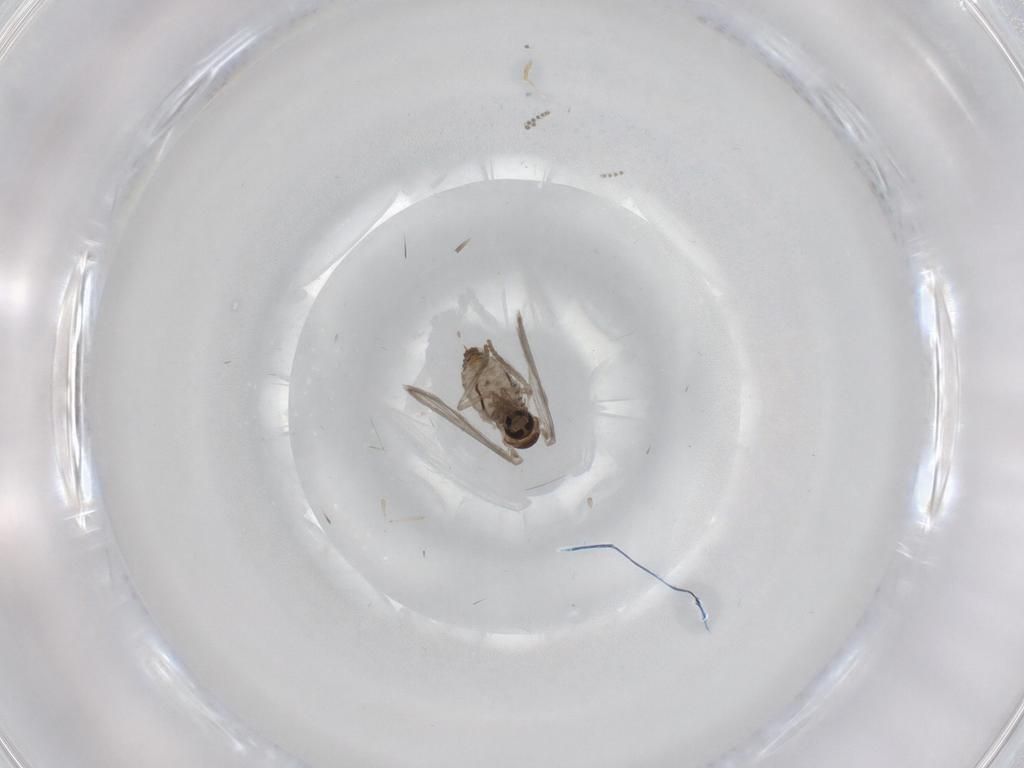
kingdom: Animalia
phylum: Arthropoda
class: Insecta
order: Diptera
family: Psychodidae
